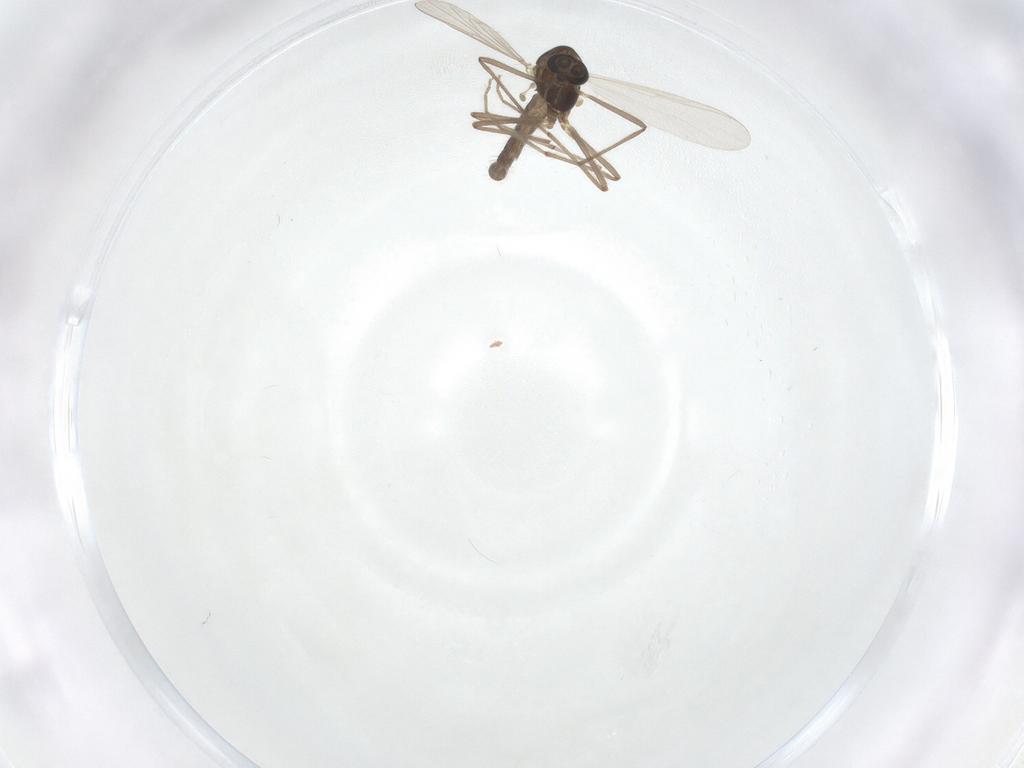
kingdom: Animalia
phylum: Arthropoda
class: Insecta
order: Diptera
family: Chironomidae
